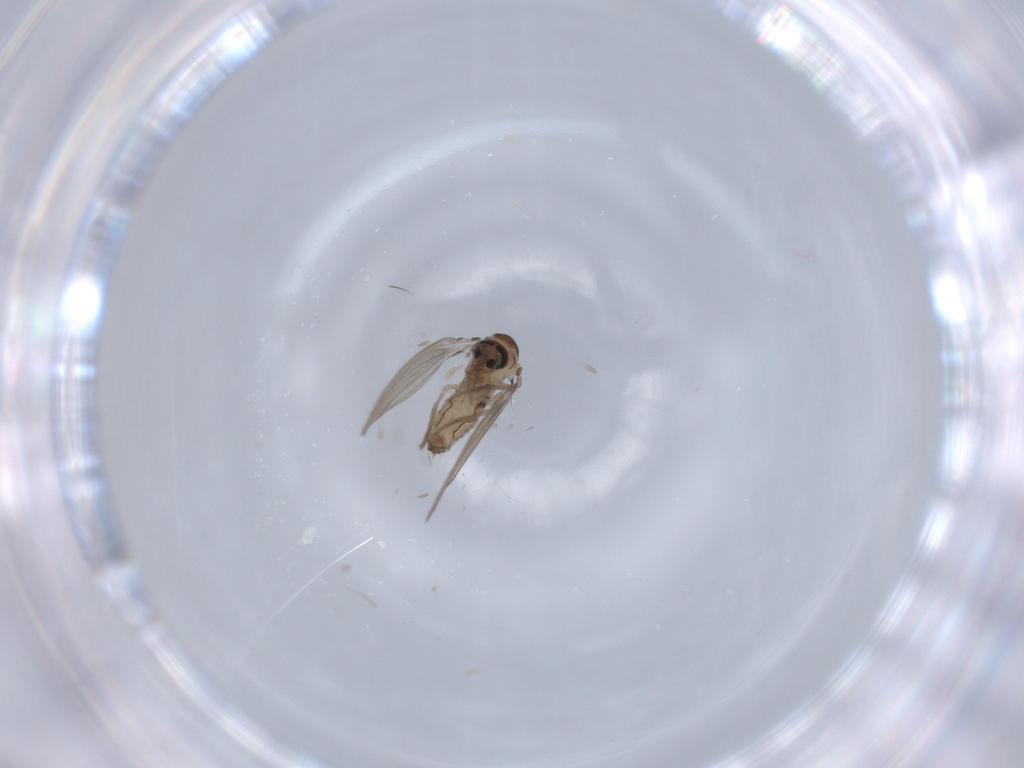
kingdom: Animalia
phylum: Arthropoda
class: Insecta
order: Diptera
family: Psychodidae
